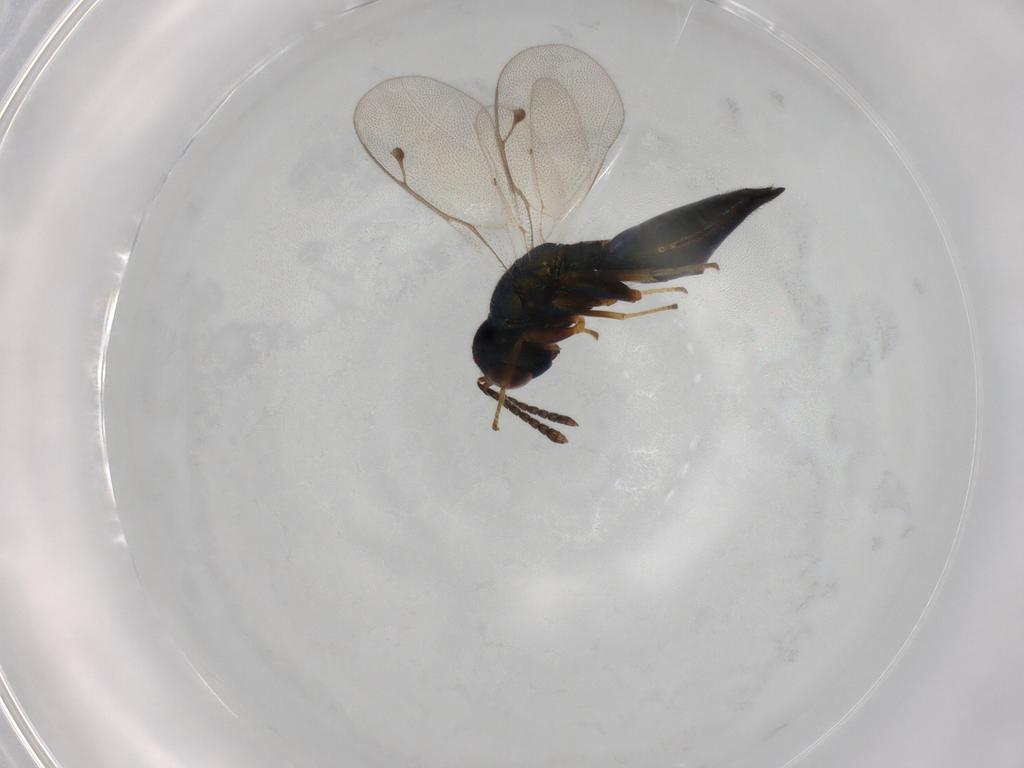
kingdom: Animalia
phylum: Arthropoda
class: Insecta
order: Hymenoptera
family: Pteromalidae
